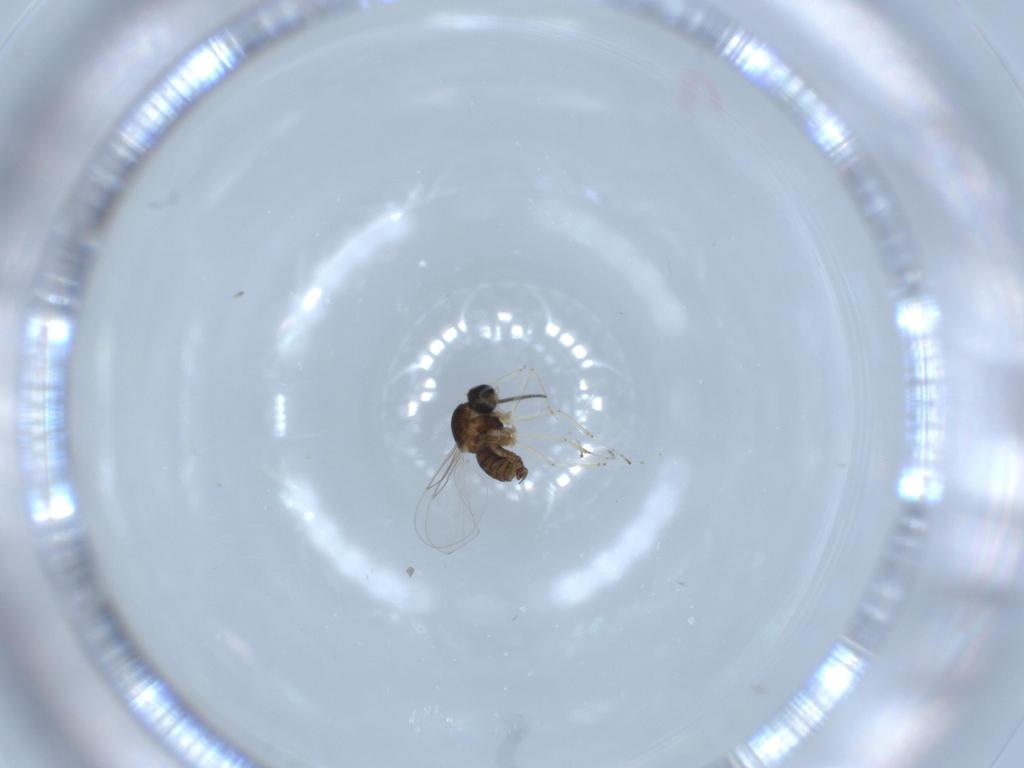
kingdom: Animalia
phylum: Arthropoda
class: Insecta
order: Diptera
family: Cecidomyiidae
